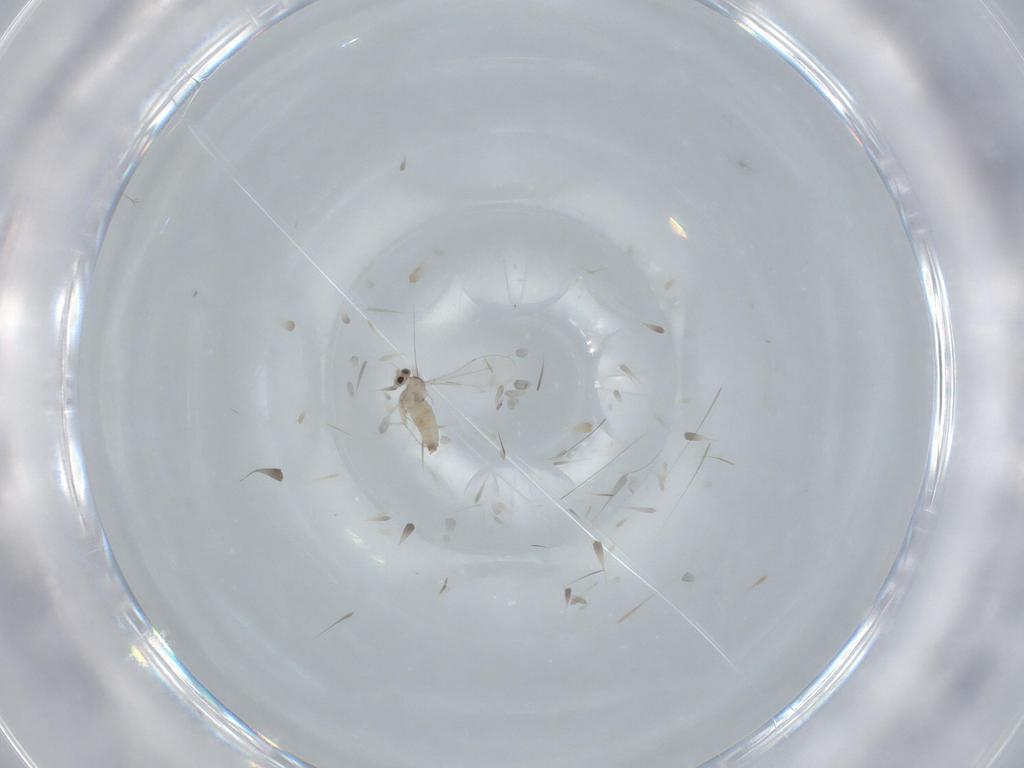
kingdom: Animalia
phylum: Arthropoda
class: Insecta
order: Diptera
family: Cecidomyiidae
